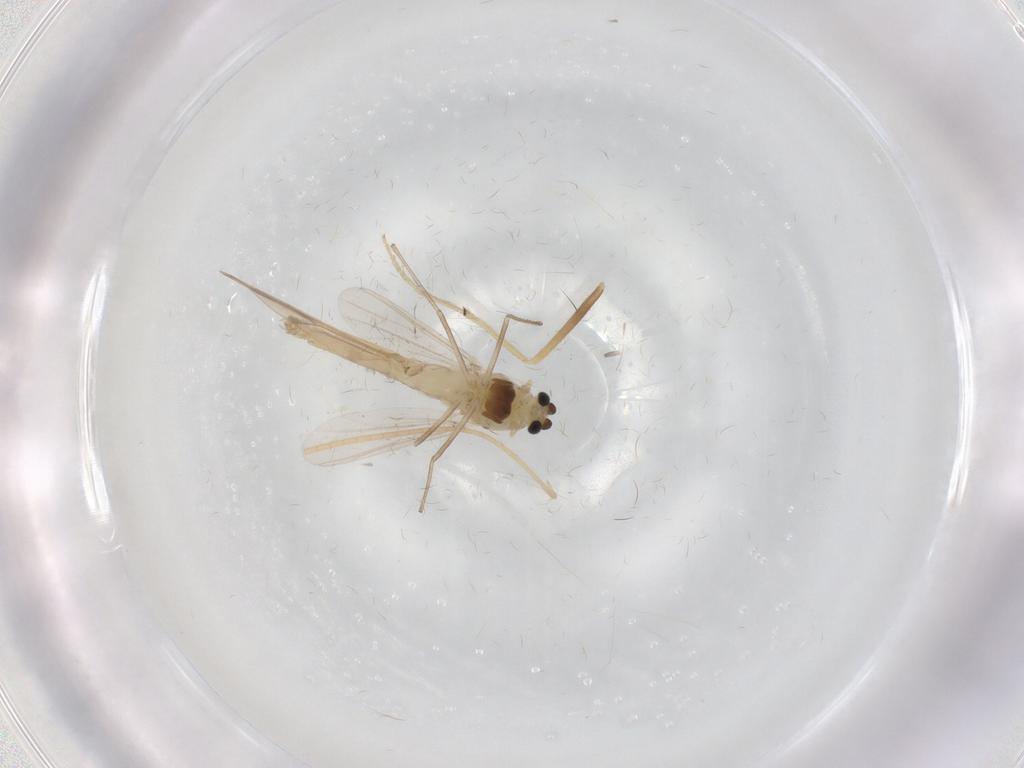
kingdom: Animalia
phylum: Arthropoda
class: Insecta
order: Diptera
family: Chironomidae
